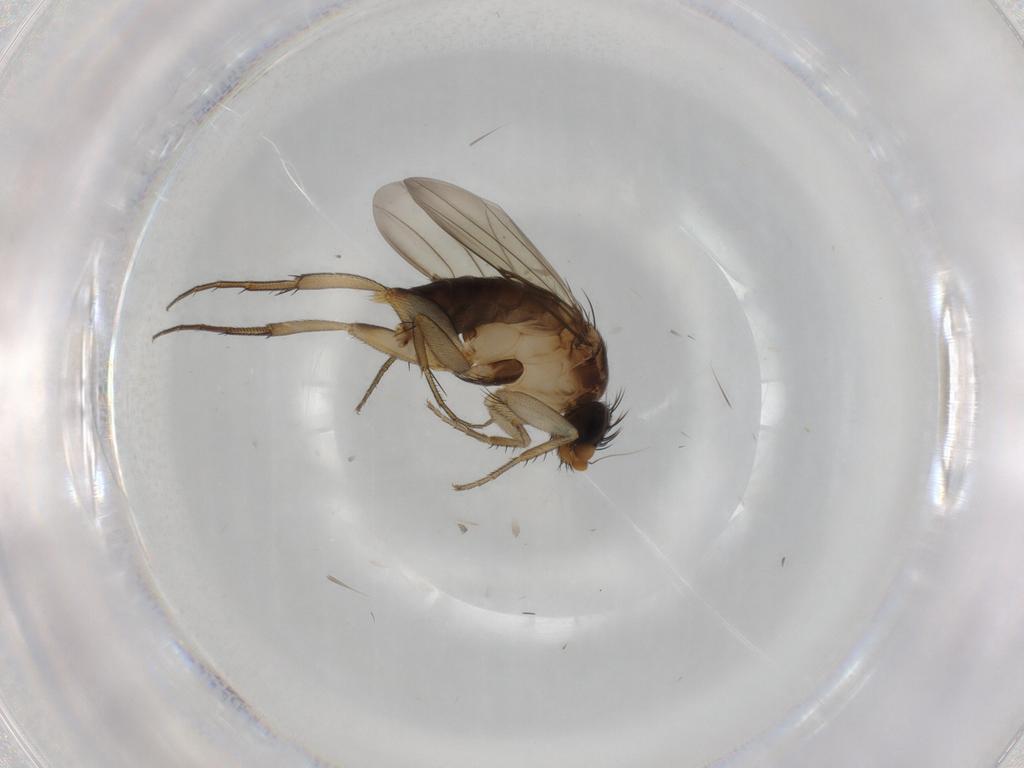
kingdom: Animalia
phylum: Arthropoda
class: Insecta
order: Diptera
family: Phoridae
